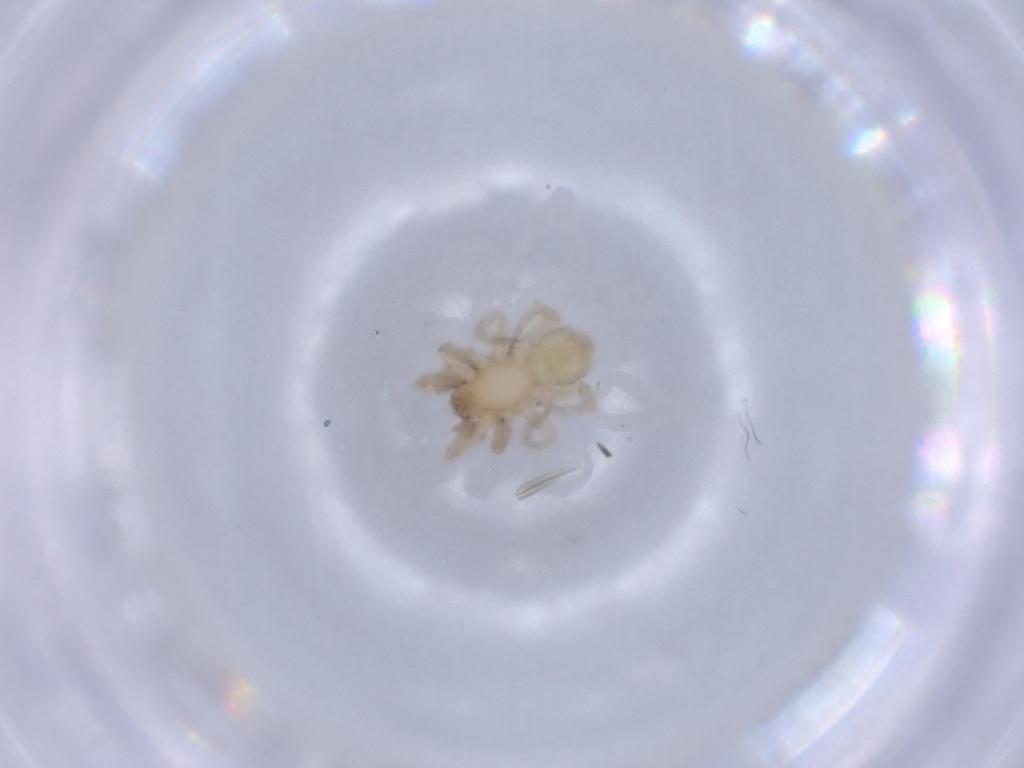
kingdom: Animalia
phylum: Arthropoda
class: Arachnida
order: Araneae
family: Gnaphosidae
